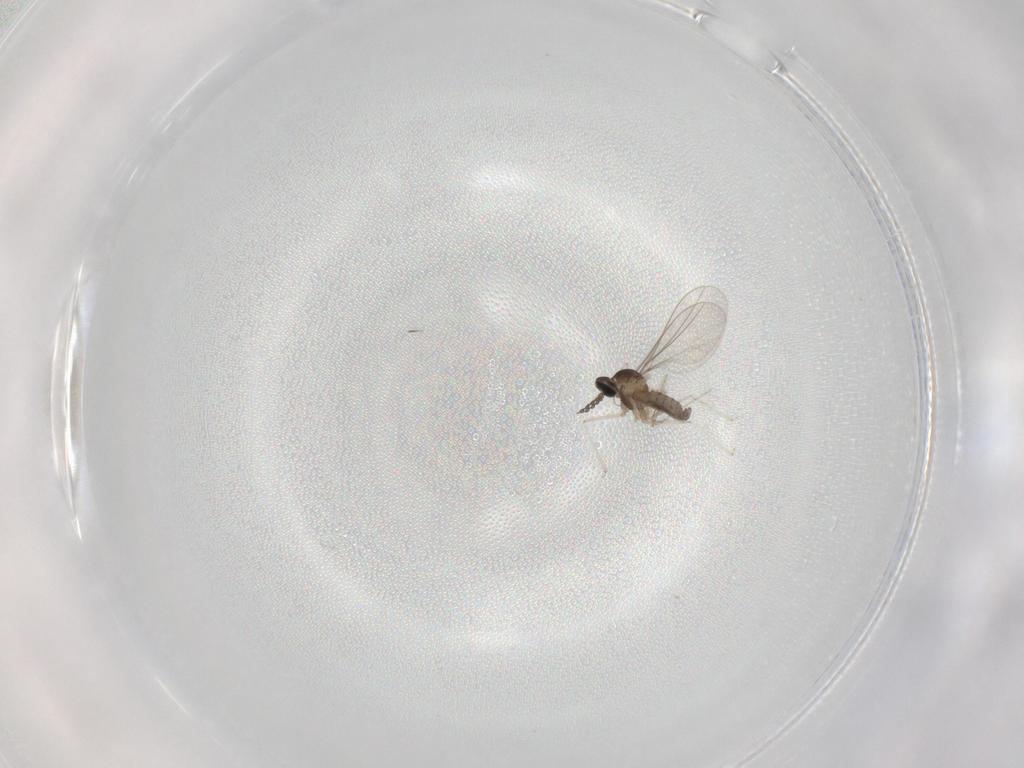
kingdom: Animalia
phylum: Arthropoda
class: Insecta
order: Diptera
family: Cecidomyiidae
